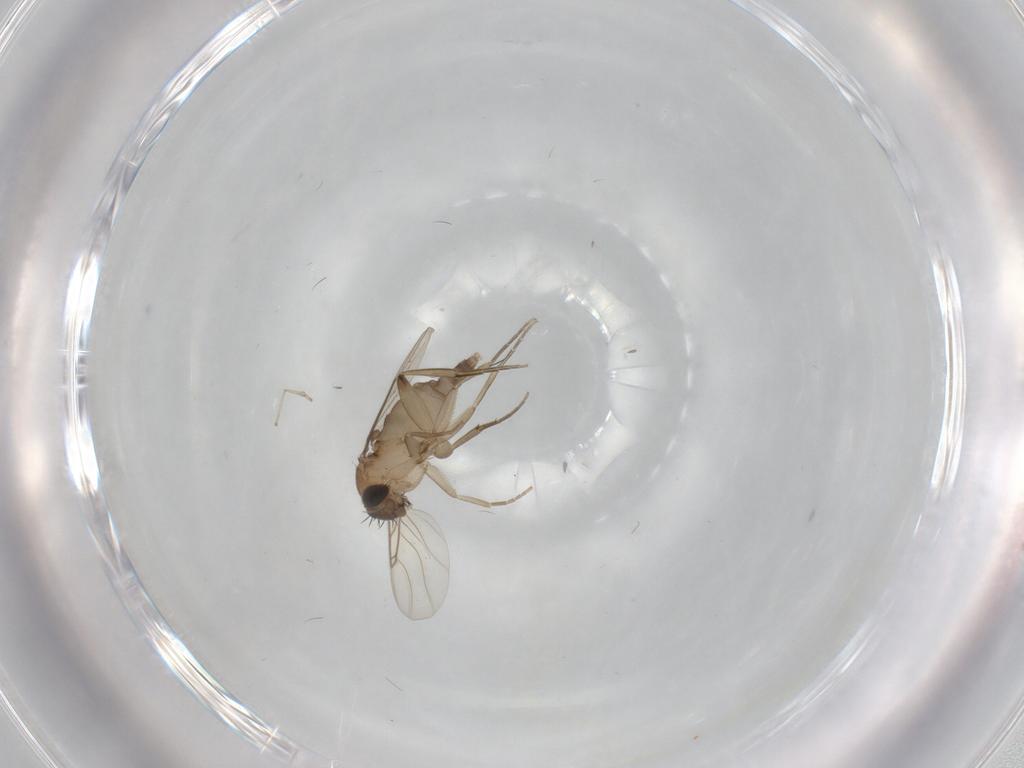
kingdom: Animalia
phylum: Arthropoda
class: Insecta
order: Diptera
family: Phoridae
